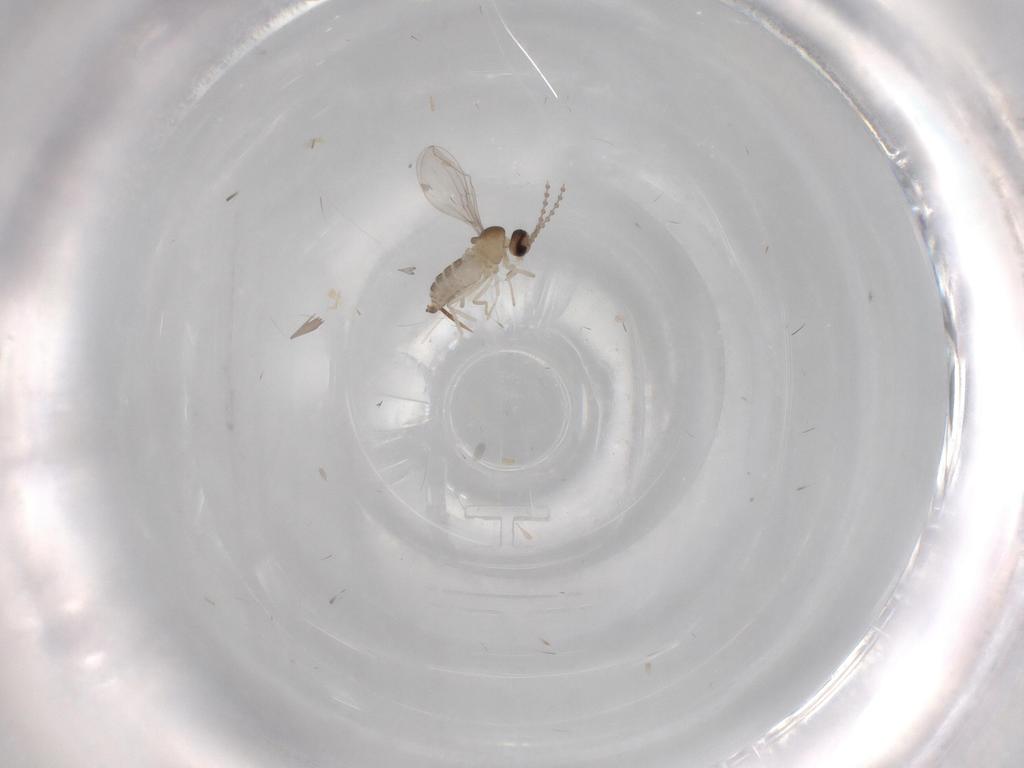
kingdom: Animalia
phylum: Arthropoda
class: Insecta
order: Diptera
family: Cecidomyiidae
